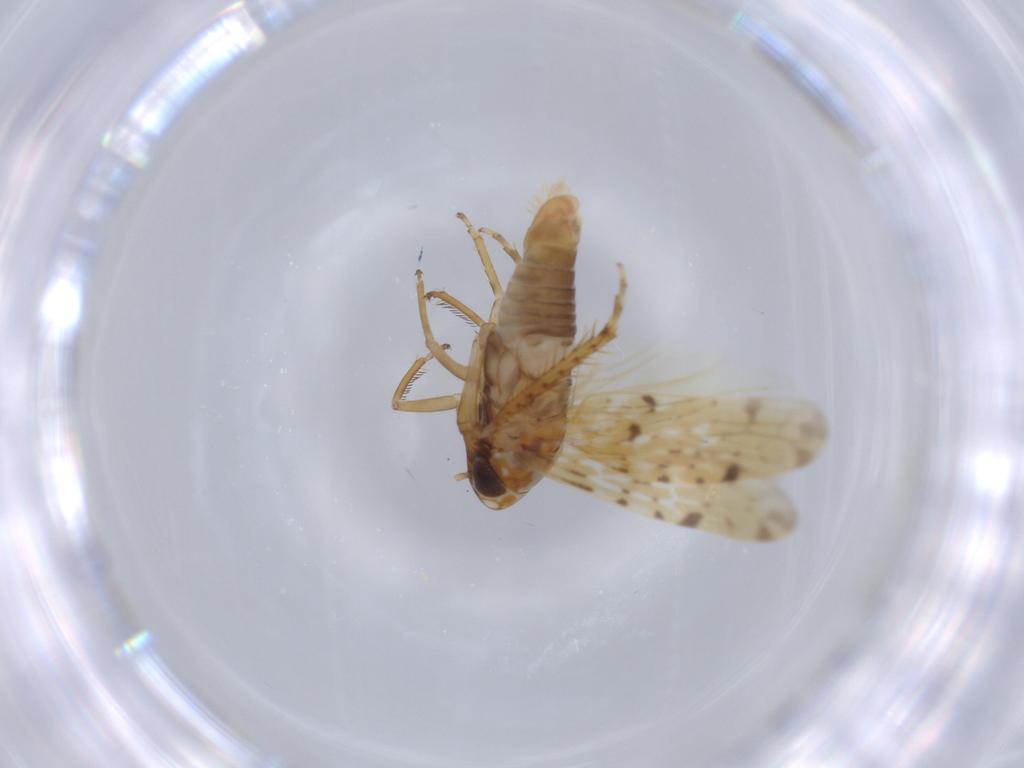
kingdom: Animalia
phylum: Arthropoda
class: Insecta
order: Hemiptera
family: Cicadellidae
